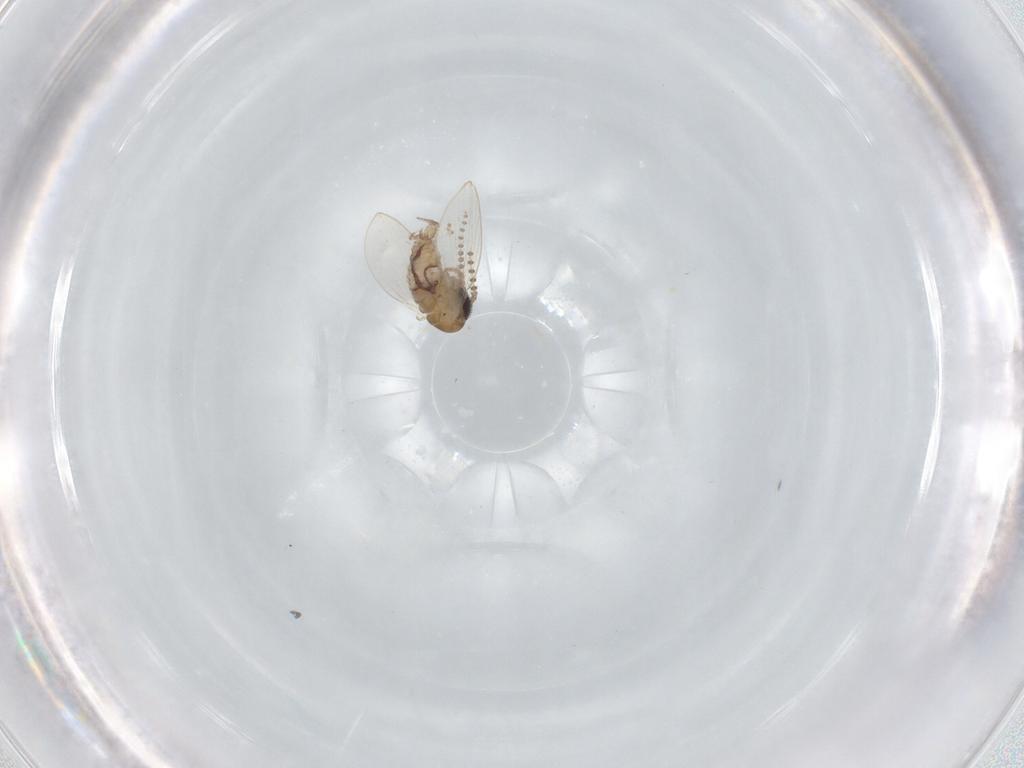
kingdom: Animalia
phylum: Arthropoda
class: Insecta
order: Diptera
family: Psychodidae
